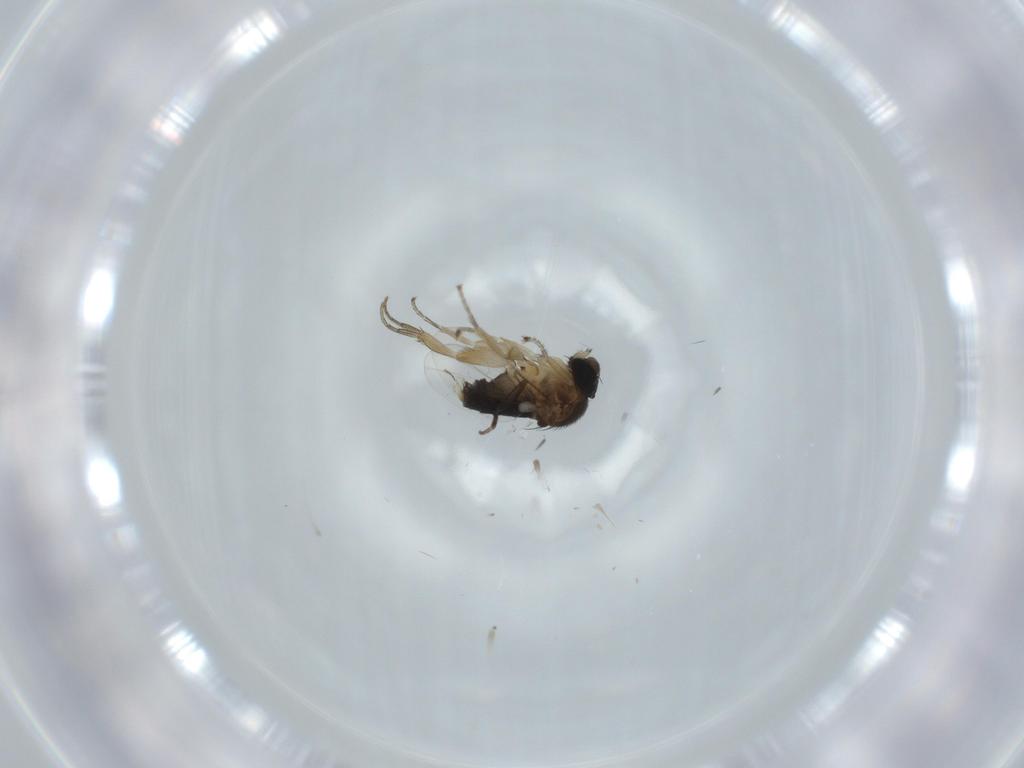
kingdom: Animalia
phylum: Arthropoda
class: Insecta
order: Diptera
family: Phoridae
